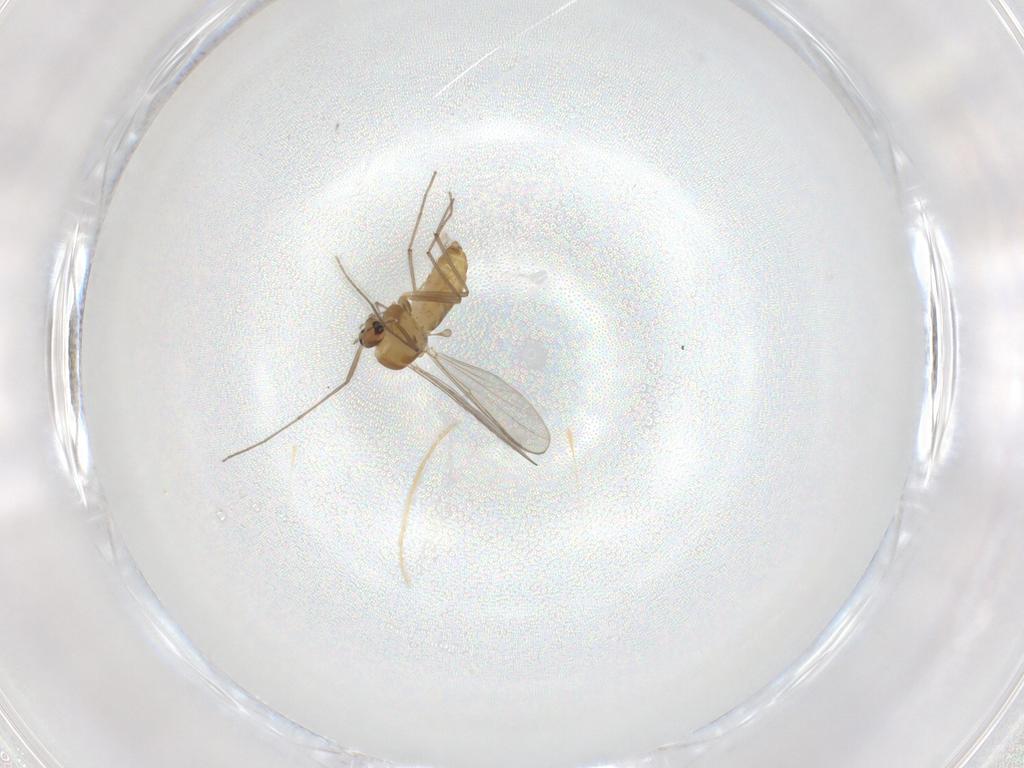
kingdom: Animalia
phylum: Arthropoda
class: Insecta
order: Diptera
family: Chironomidae
